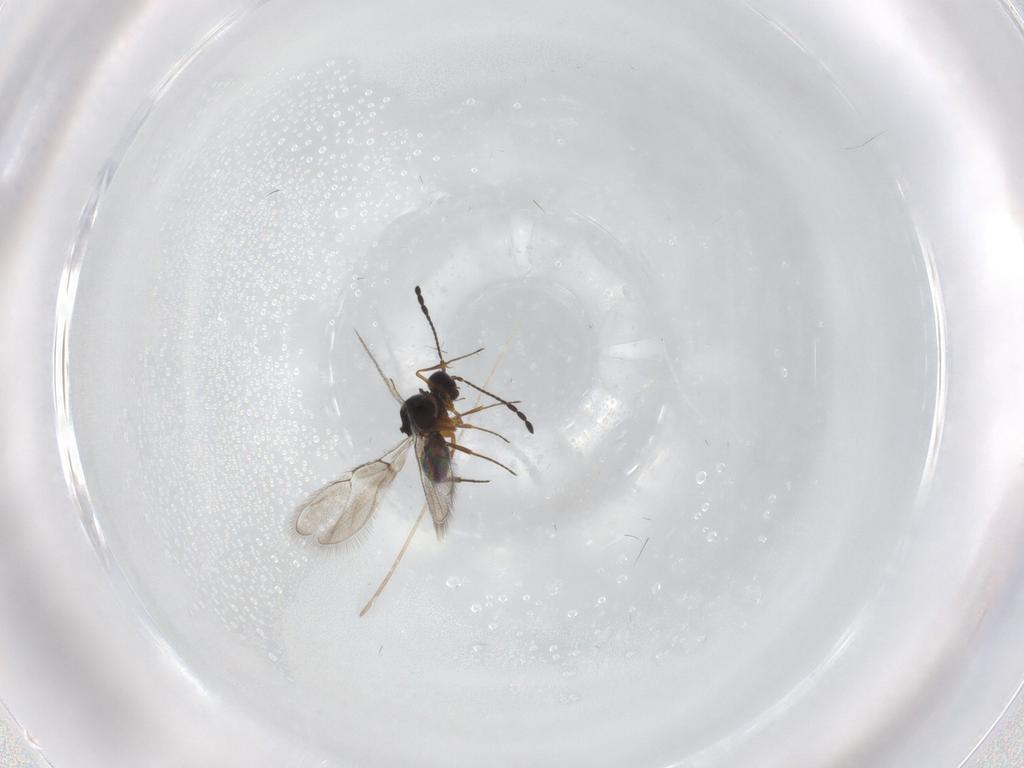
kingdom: Animalia
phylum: Arthropoda
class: Insecta
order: Hymenoptera
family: Figitidae
